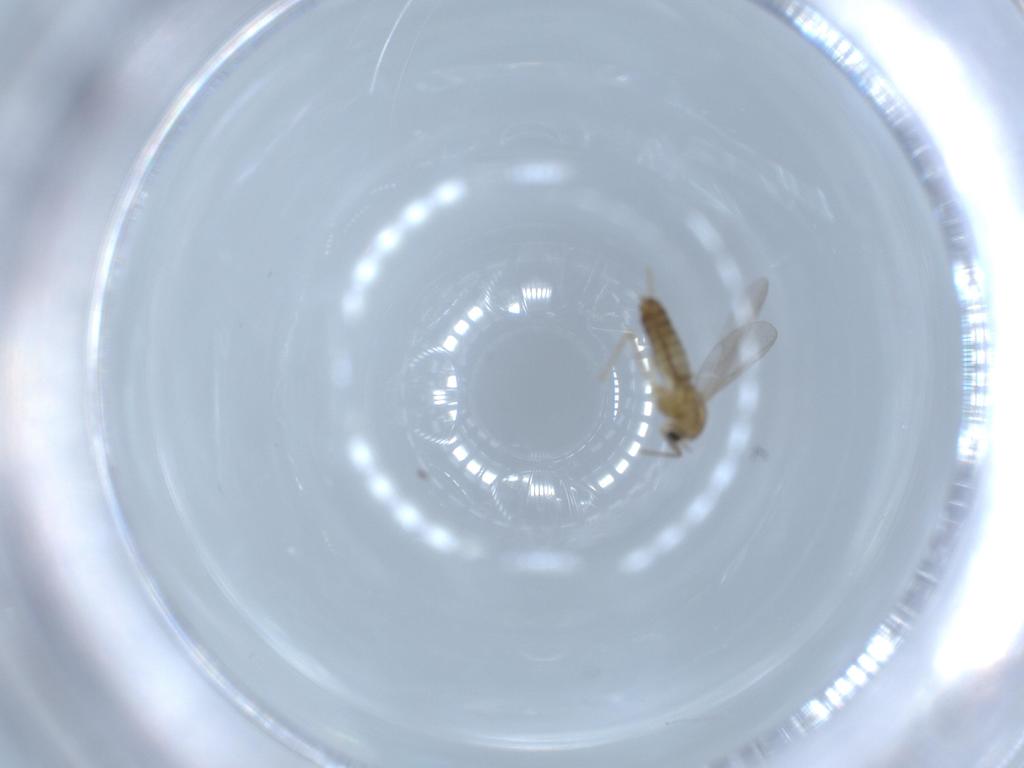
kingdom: Animalia
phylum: Arthropoda
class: Insecta
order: Diptera
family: Chironomidae
